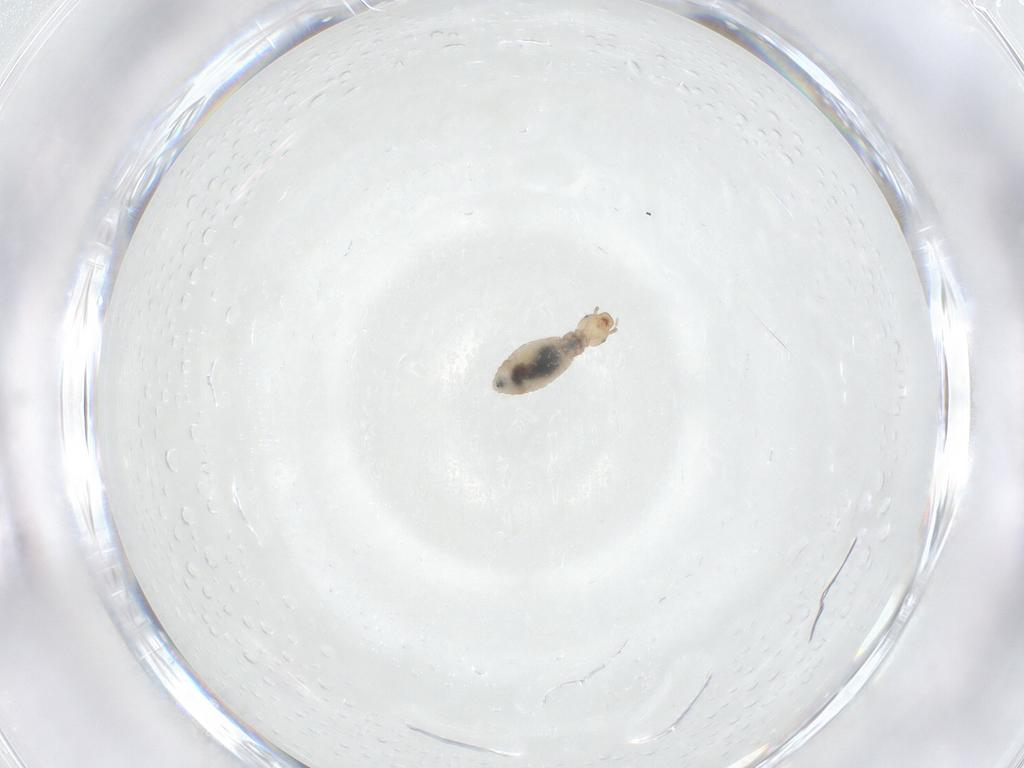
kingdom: Animalia
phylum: Arthropoda
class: Insecta
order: Psocodea
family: Liposcelididae
